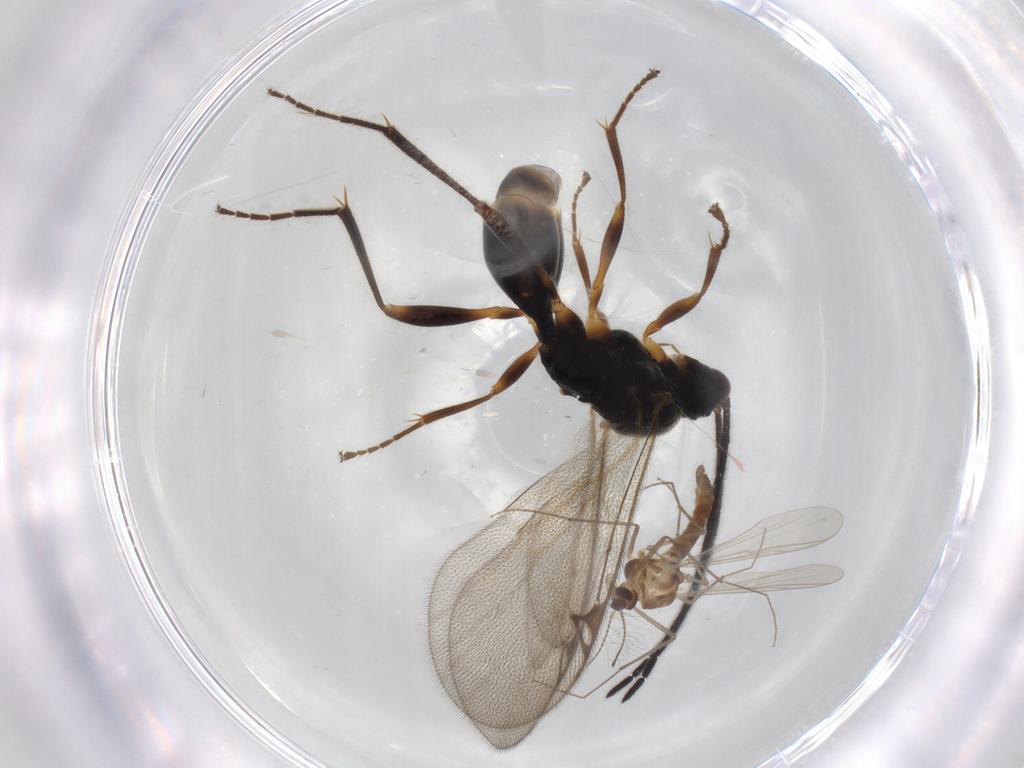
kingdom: Animalia
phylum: Arthropoda
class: Insecta
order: Hymenoptera
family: Proctotrupidae
